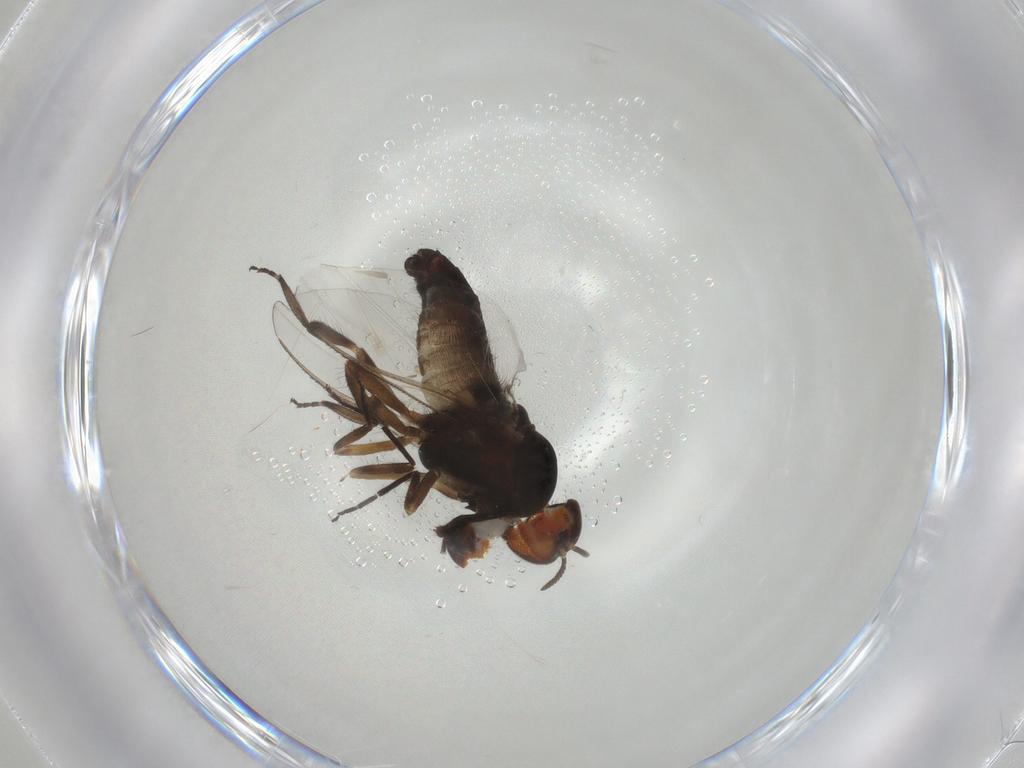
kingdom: Animalia
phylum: Arthropoda
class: Insecta
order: Diptera
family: Cecidomyiidae
